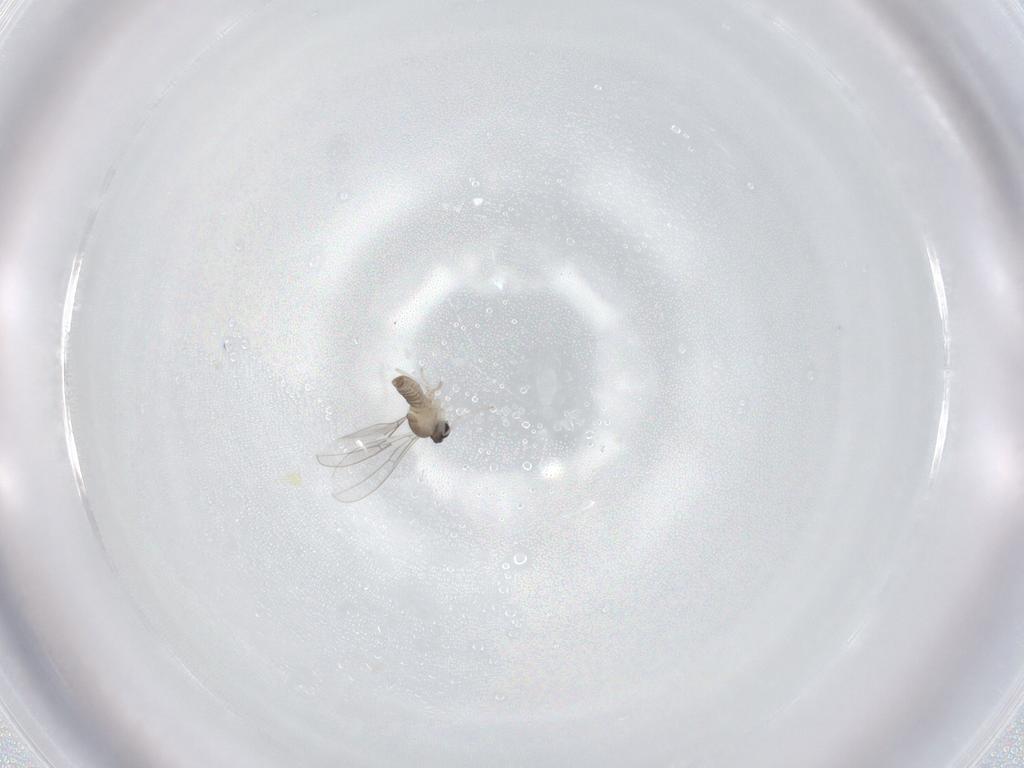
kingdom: Animalia
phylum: Arthropoda
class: Insecta
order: Diptera
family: Cecidomyiidae
